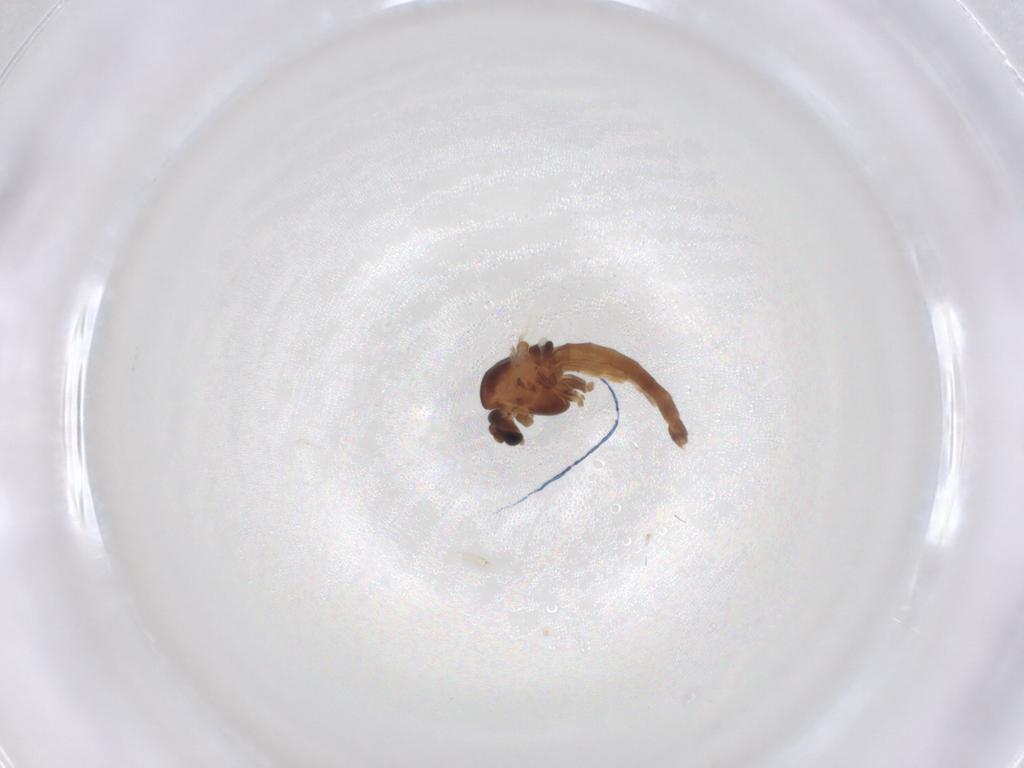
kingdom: Animalia
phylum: Arthropoda
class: Insecta
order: Diptera
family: Chironomidae
